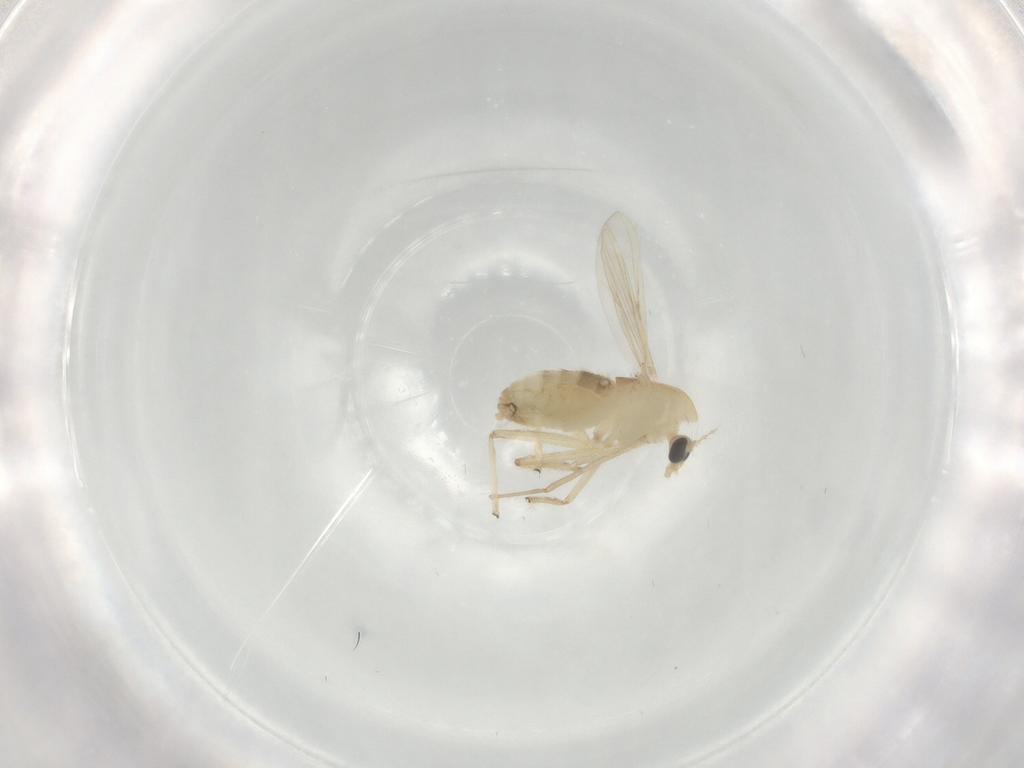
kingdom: Animalia
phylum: Arthropoda
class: Insecta
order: Diptera
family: Chironomidae
